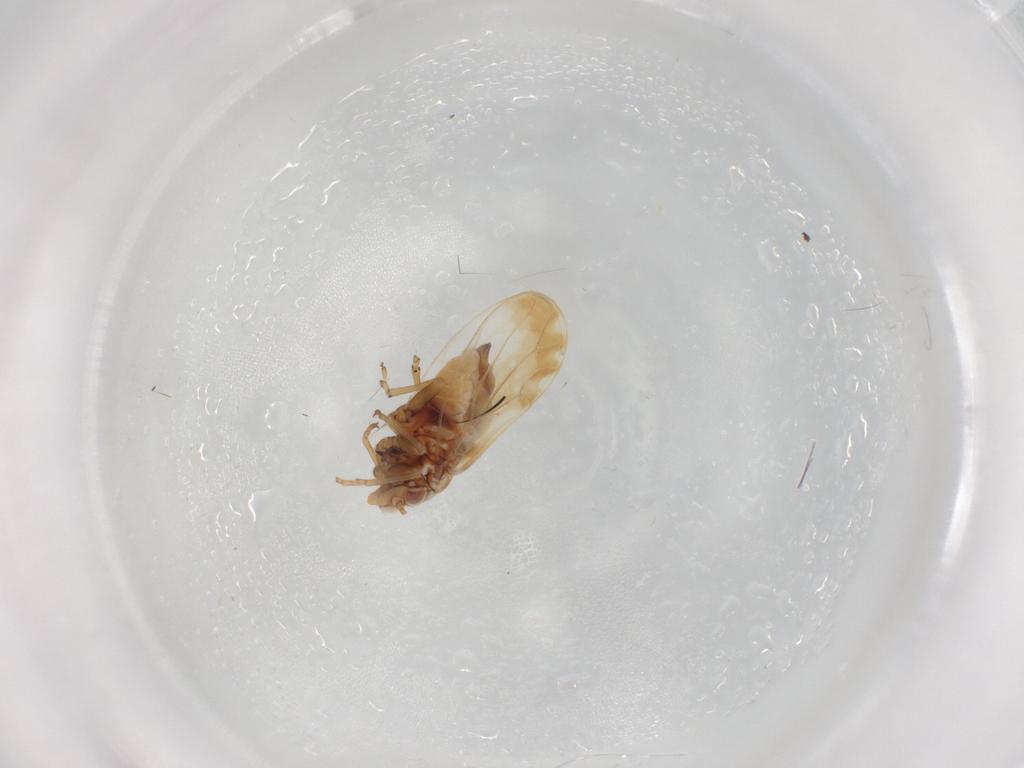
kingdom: Animalia
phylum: Arthropoda
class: Insecta
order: Hemiptera
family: Psyllidae
